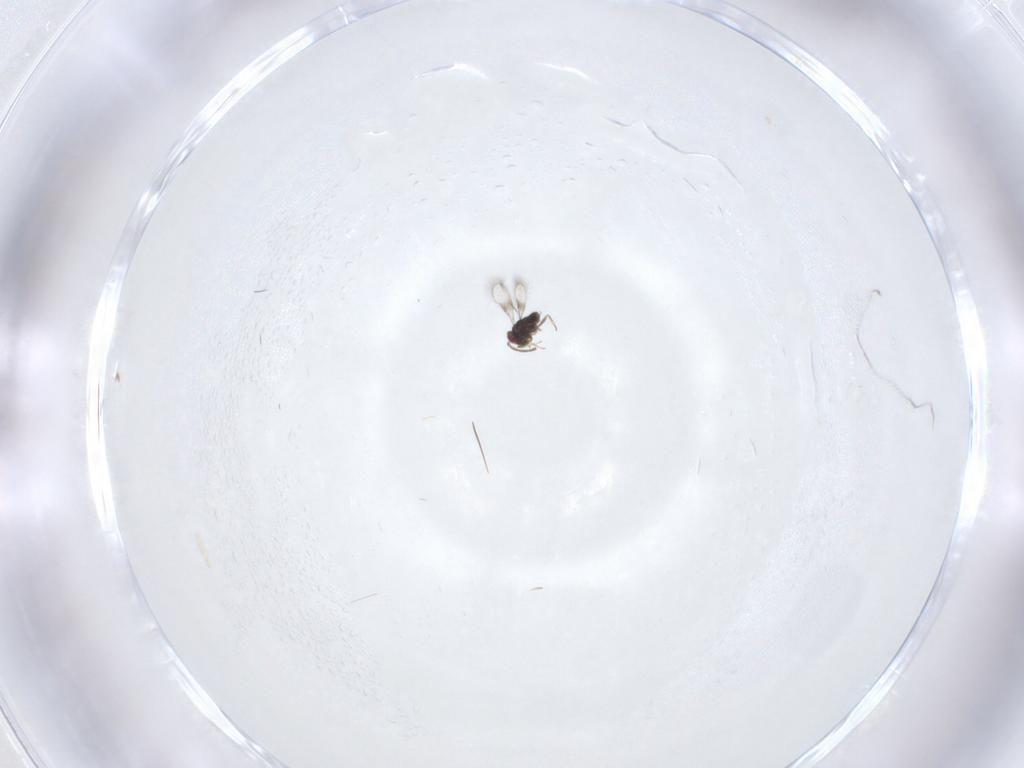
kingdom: Animalia
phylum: Arthropoda
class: Insecta
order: Hymenoptera
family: Azotidae
